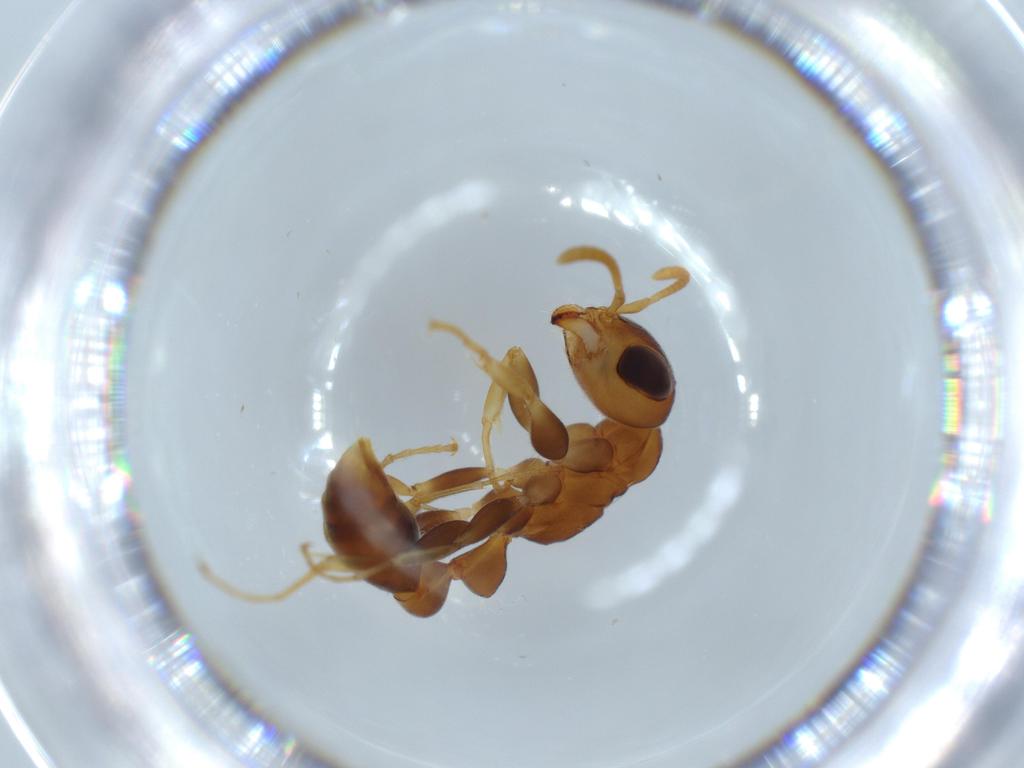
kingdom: Animalia
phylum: Arthropoda
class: Insecta
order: Hymenoptera
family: Formicidae
